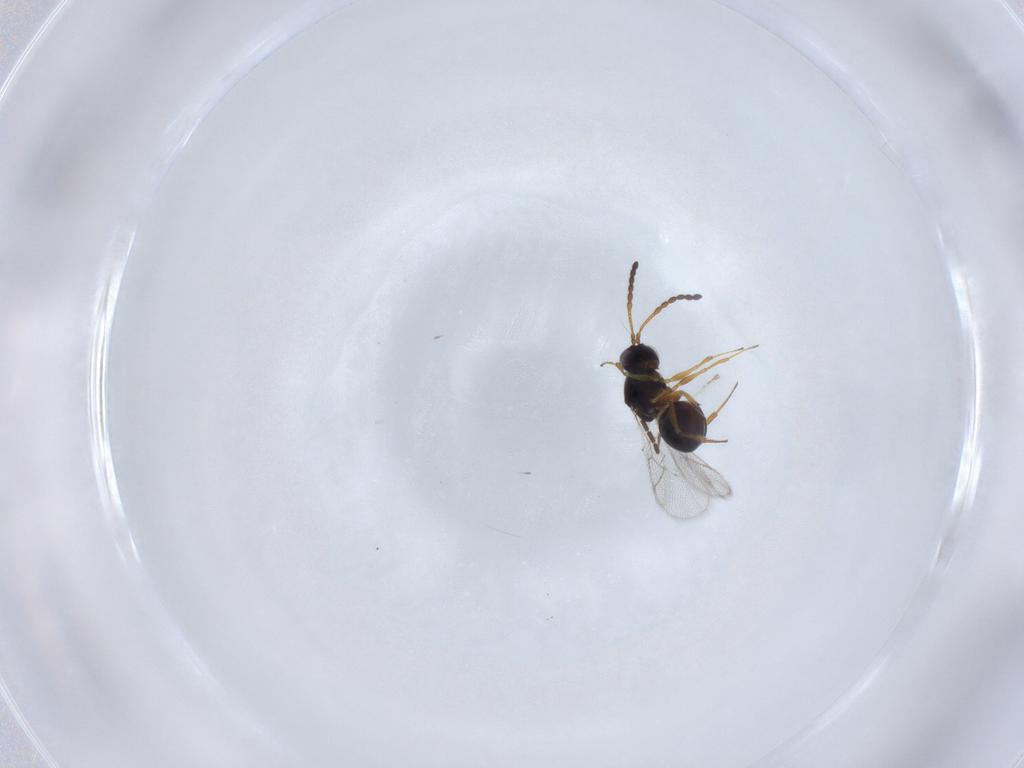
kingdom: Animalia
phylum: Arthropoda
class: Insecta
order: Hymenoptera
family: Figitidae
